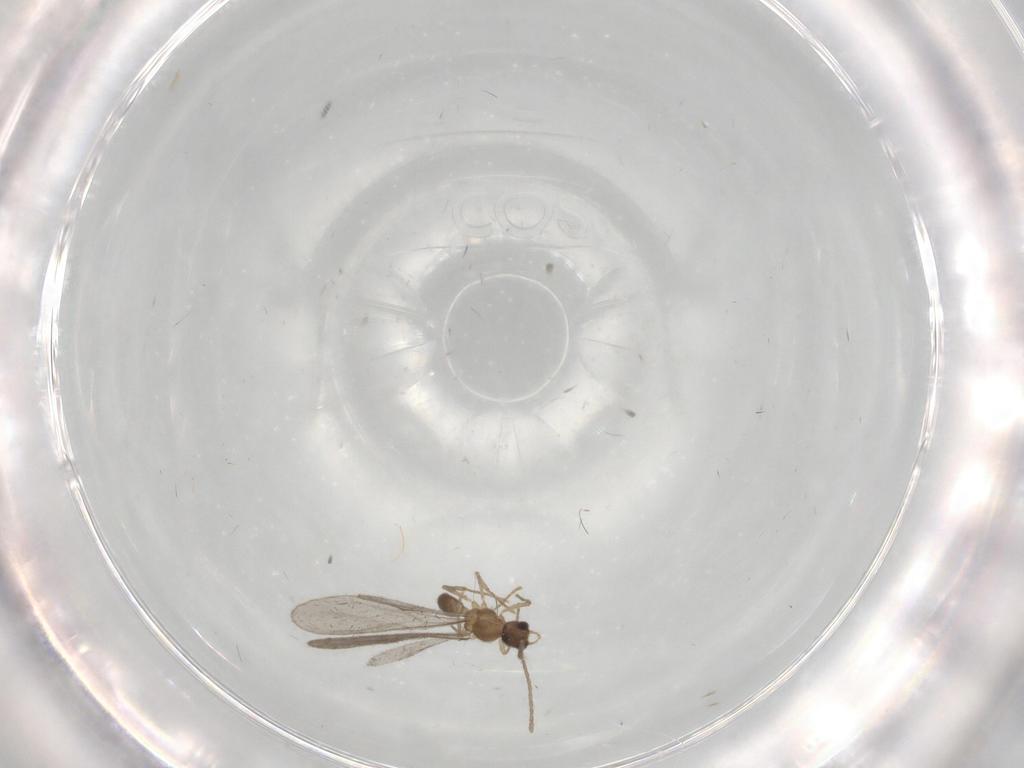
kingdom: Animalia
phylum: Arthropoda
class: Insecta
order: Hymenoptera
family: Formicidae
